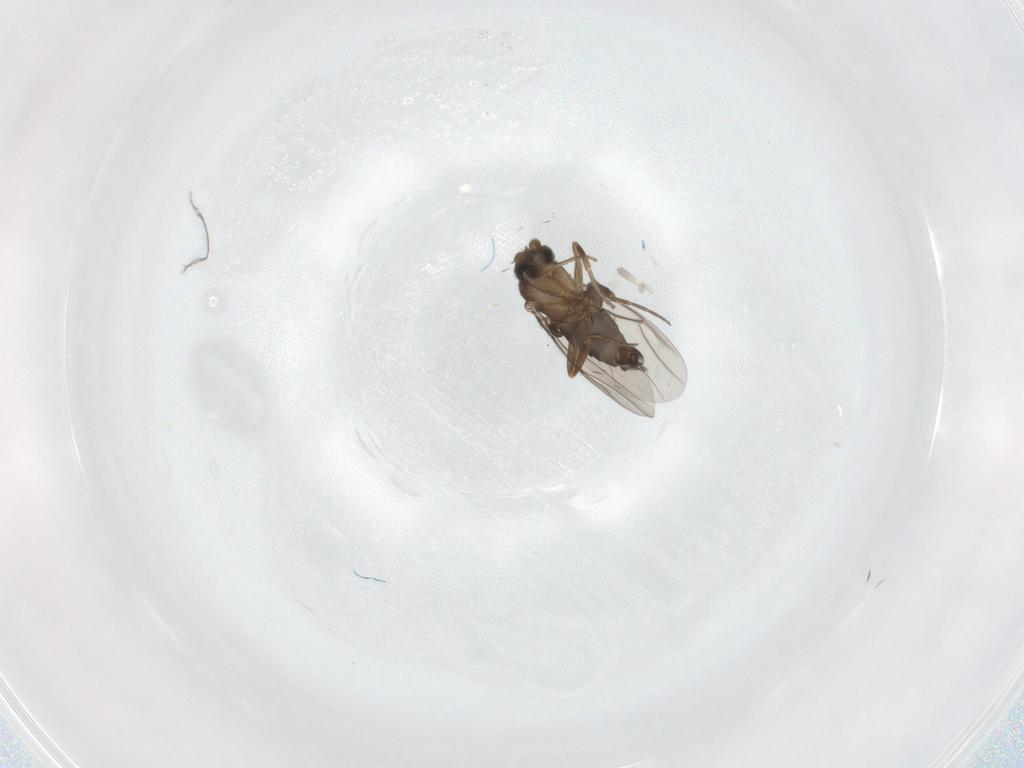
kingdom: Animalia
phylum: Arthropoda
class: Insecta
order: Diptera
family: Phoridae
